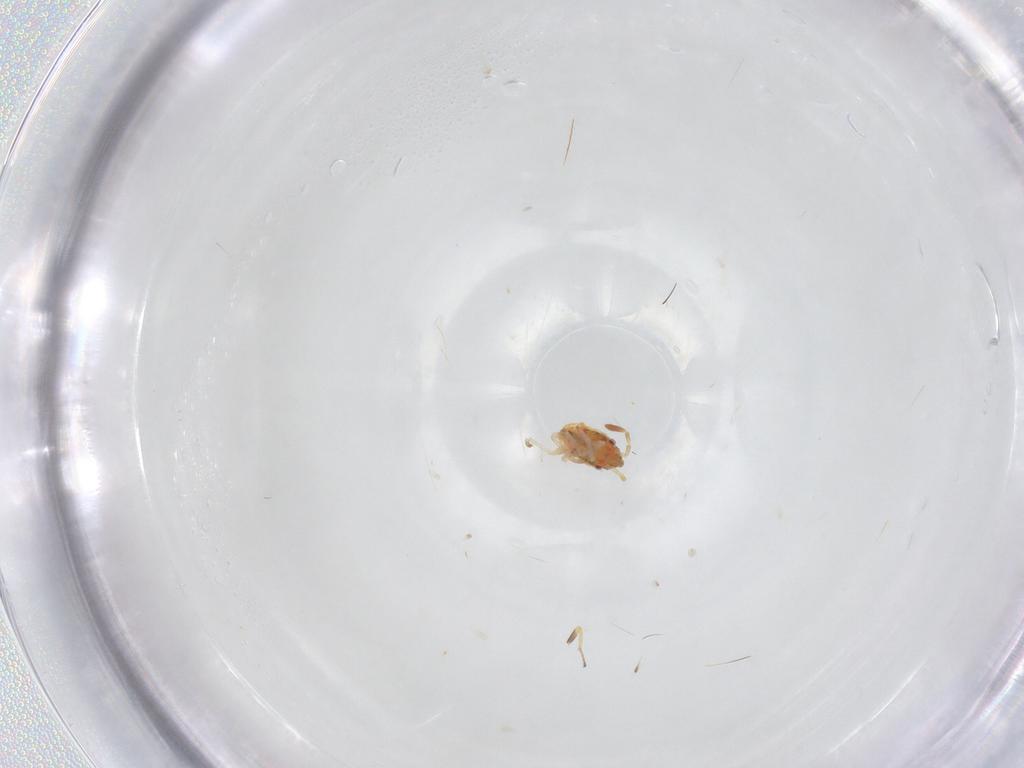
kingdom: Animalia
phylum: Arthropoda
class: Insecta
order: Hemiptera
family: Lygaeidae
